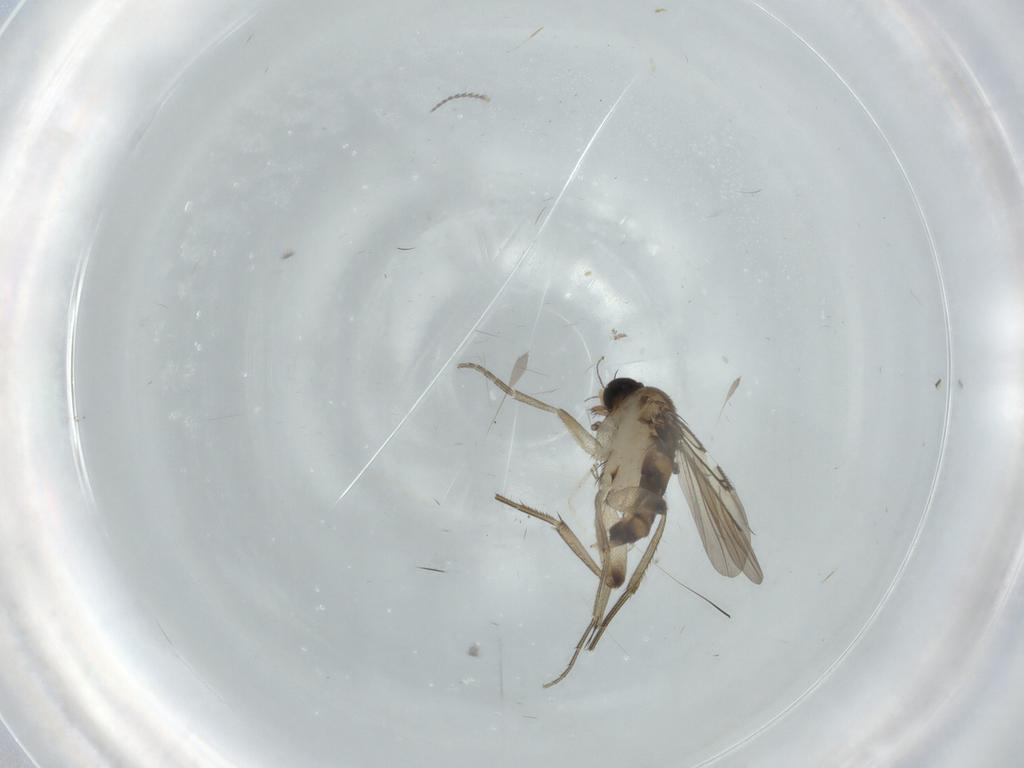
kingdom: Animalia
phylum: Arthropoda
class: Insecta
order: Diptera
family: Phoridae
